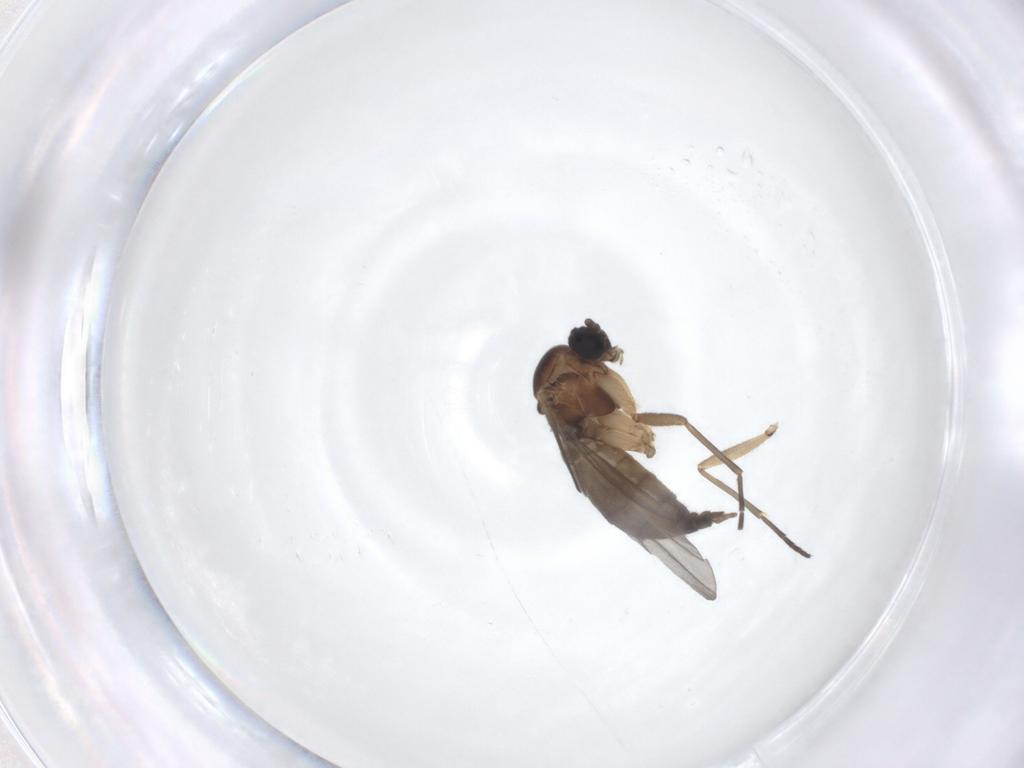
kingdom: Animalia
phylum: Arthropoda
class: Insecta
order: Diptera
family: Sciaridae
